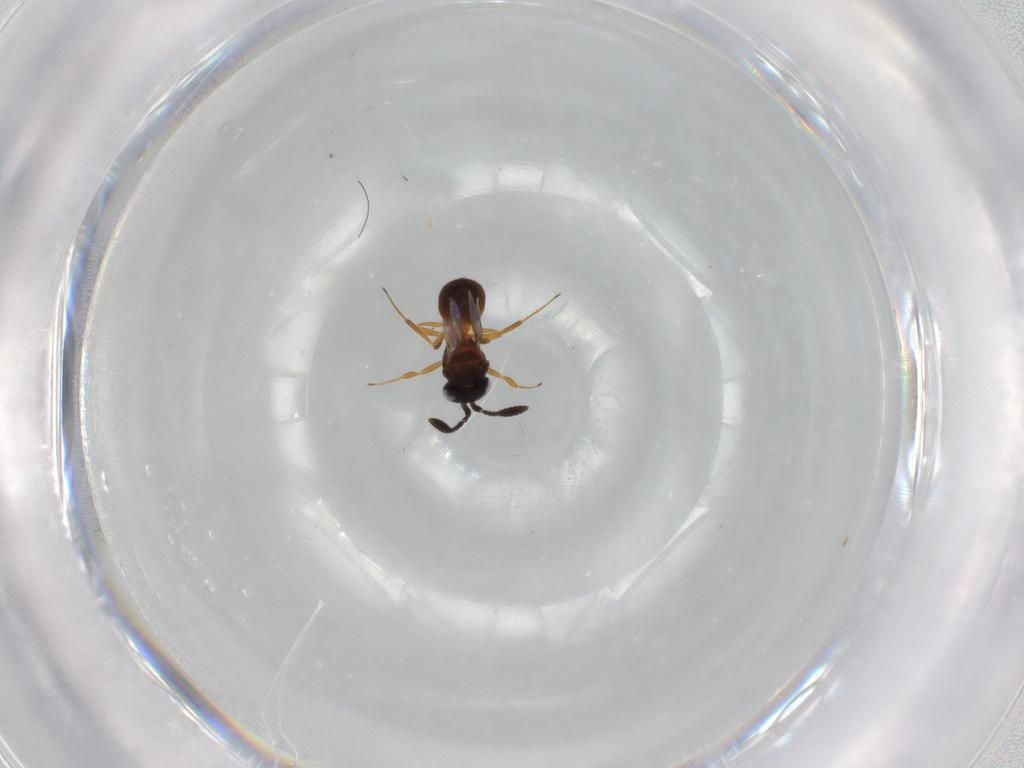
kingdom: Animalia
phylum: Arthropoda
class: Insecta
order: Hymenoptera
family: Scelionidae
